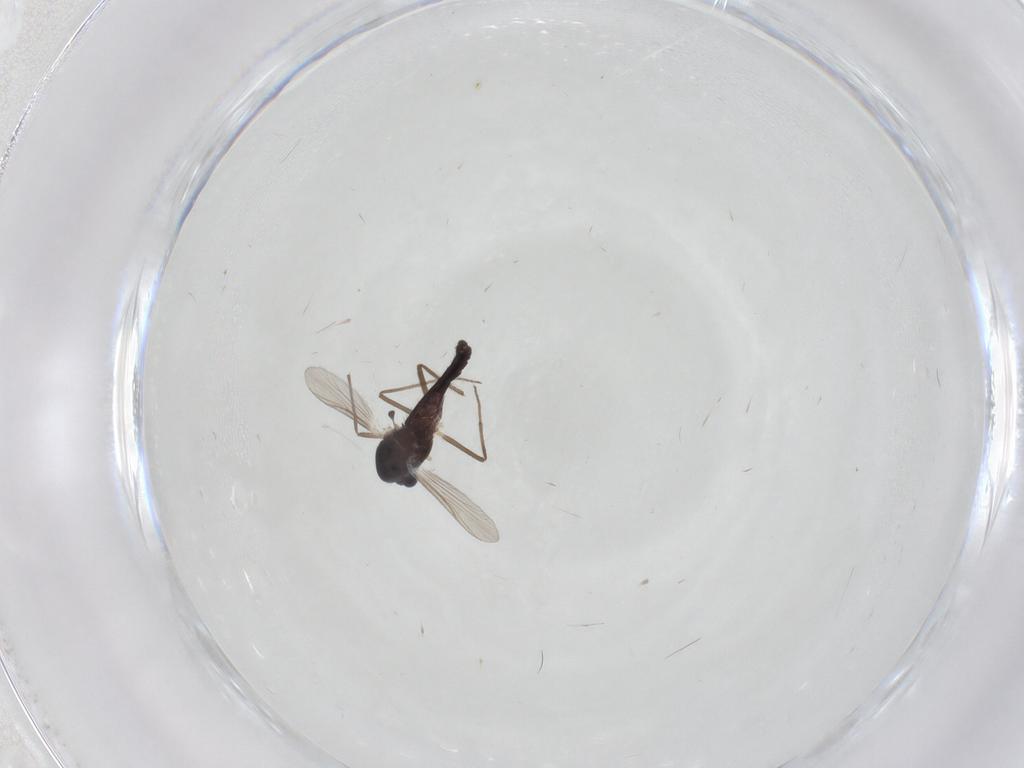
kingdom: Animalia
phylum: Arthropoda
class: Insecta
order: Diptera
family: Chironomidae
